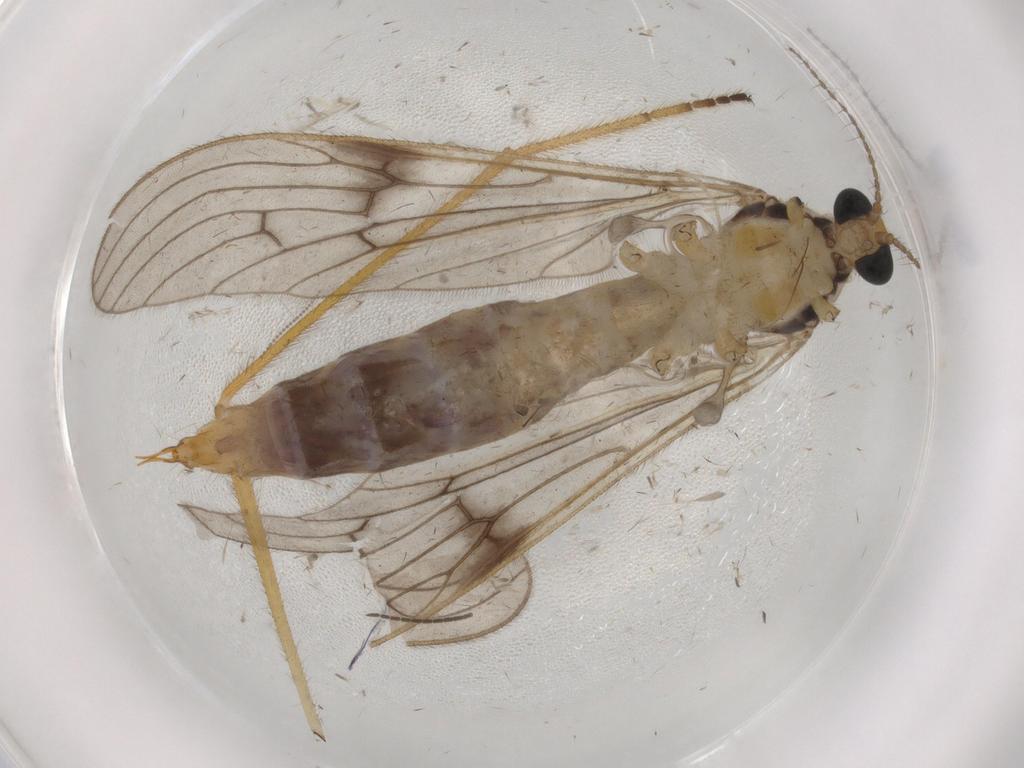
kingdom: Animalia
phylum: Arthropoda
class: Insecta
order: Diptera
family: Limoniidae
